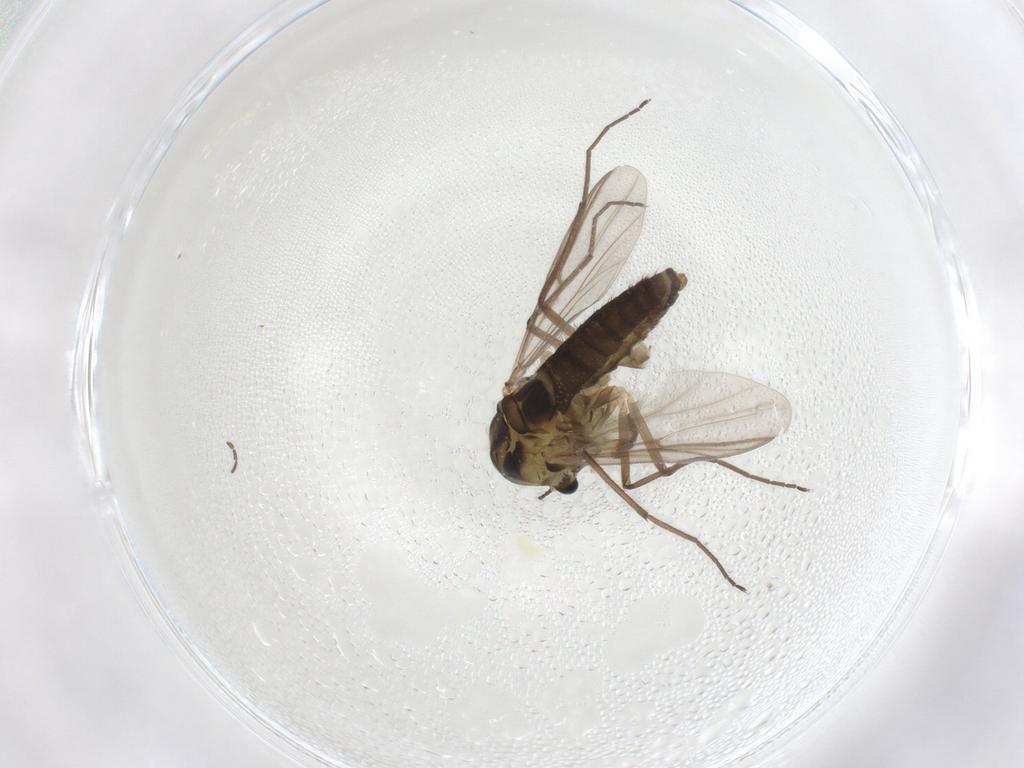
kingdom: Animalia
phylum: Arthropoda
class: Insecta
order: Diptera
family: Chironomidae
